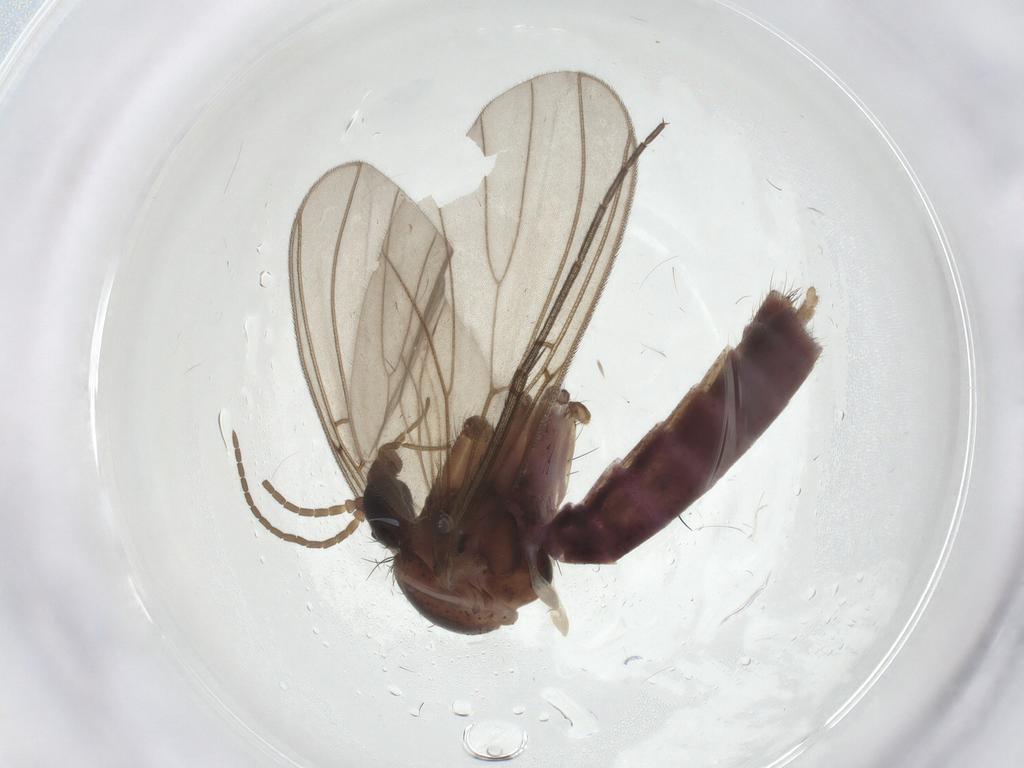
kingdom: Animalia
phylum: Arthropoda
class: Insecta
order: Diptera
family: Mycetophilidae
